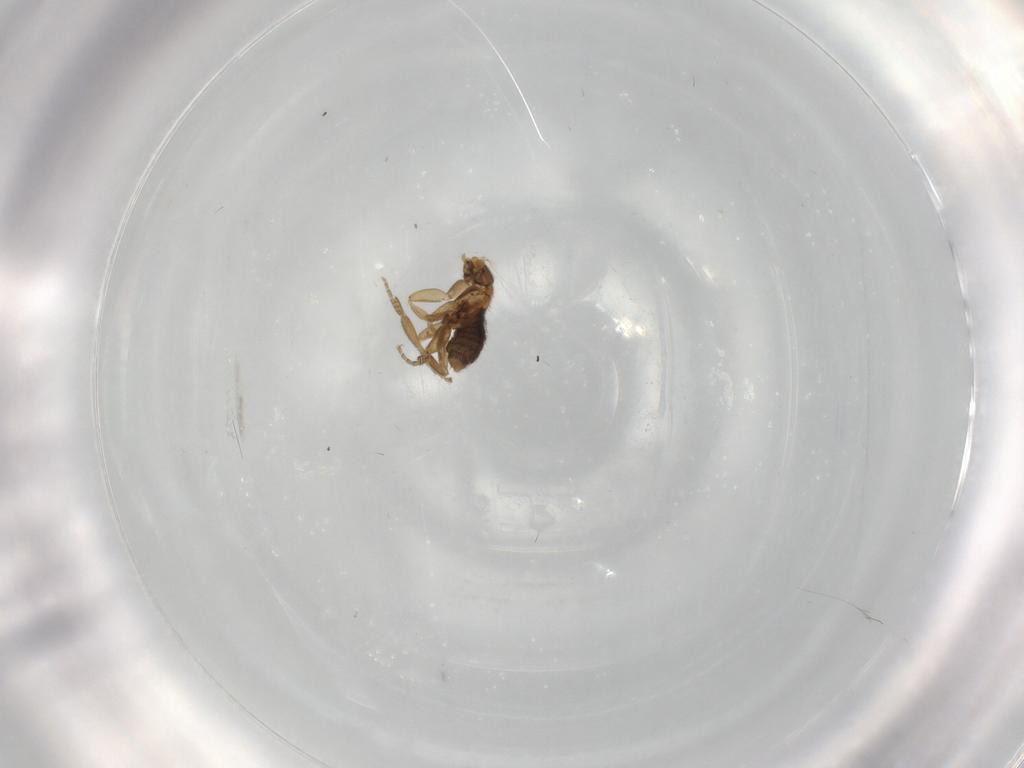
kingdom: Animalia
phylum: Arthropoda
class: Insecta
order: Diptera
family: Phoridae
